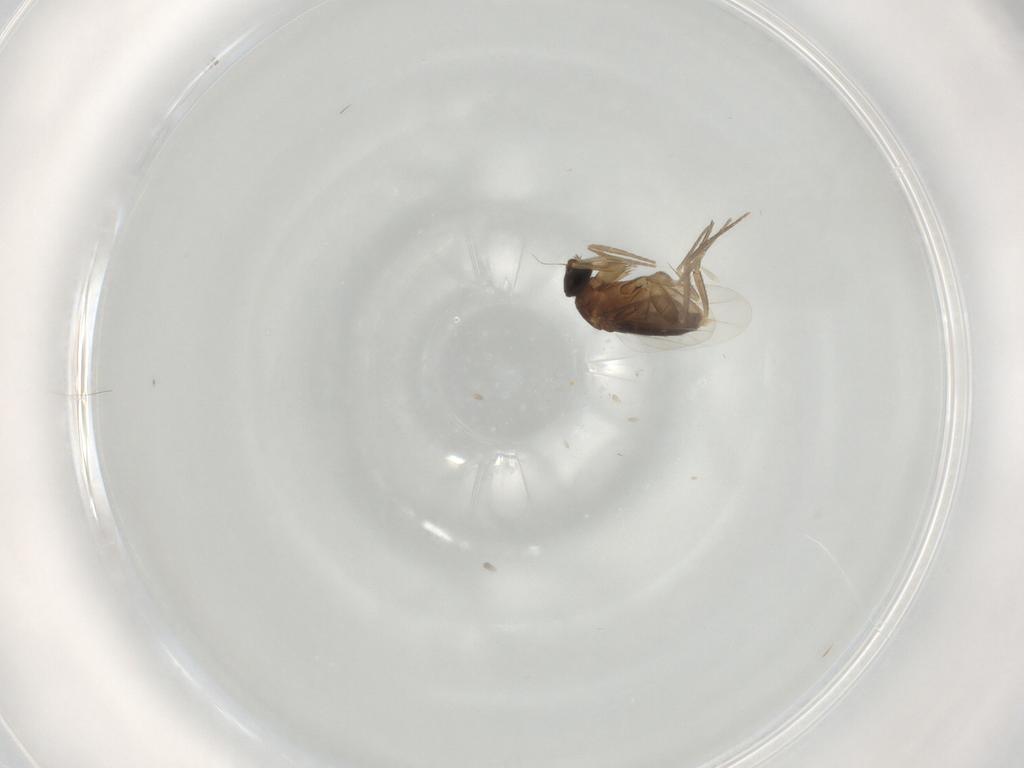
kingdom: Animalia
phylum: Arthropoda
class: Insecta
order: Diptera
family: Phoridae
